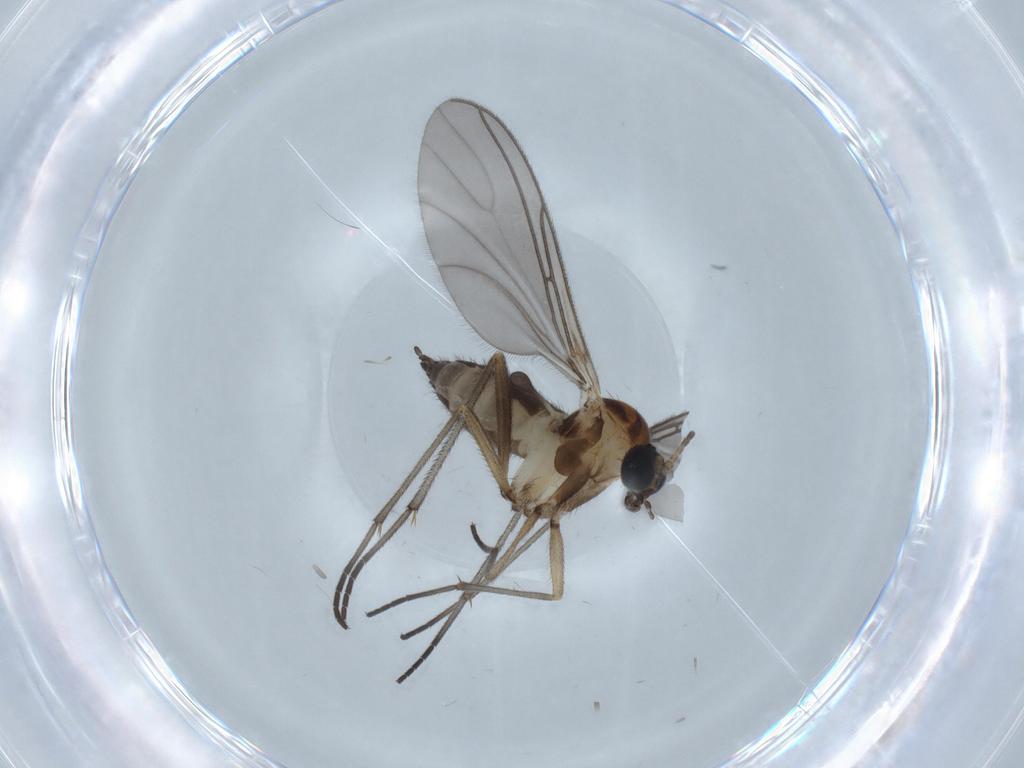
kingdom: Animalia
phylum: Arthropoda
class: Insecta
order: Diptera
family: Sciaridae
